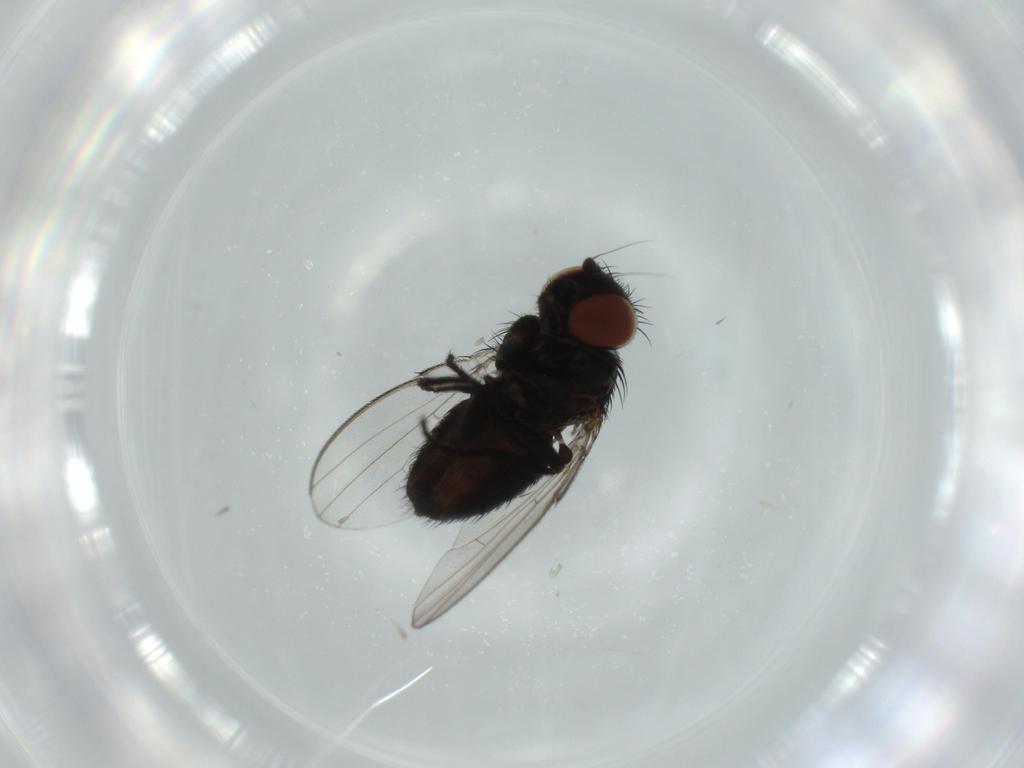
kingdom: Animalia
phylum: Arthropoda
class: Insecta
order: Diptera
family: Milichiidae
